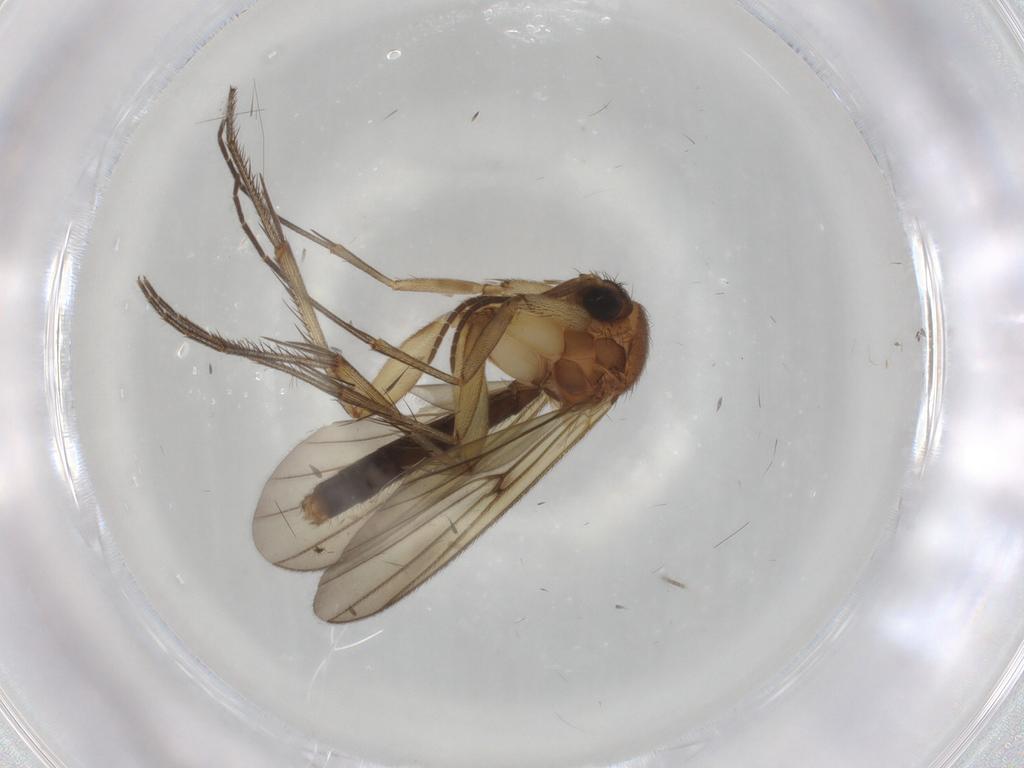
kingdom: Animalia
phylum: Arthropoda
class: Insecta
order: Diptera
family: Mycetophilidae
